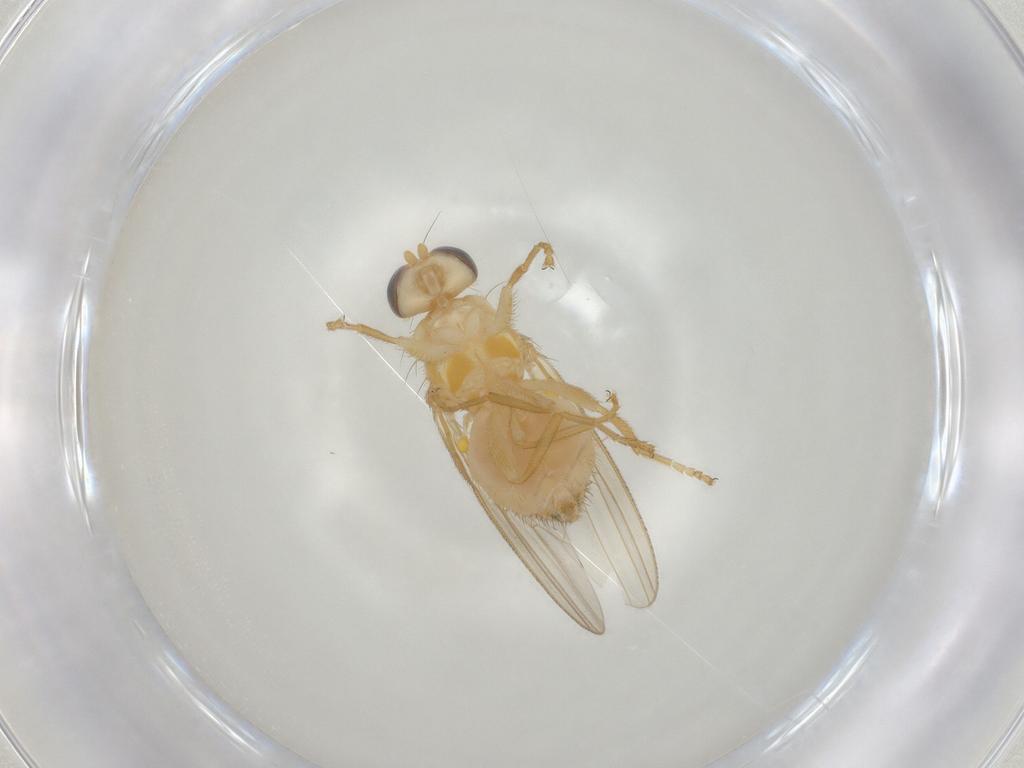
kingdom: Animalia
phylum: Arthropoda
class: Insecta
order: Diptera
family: Chyromyidae
